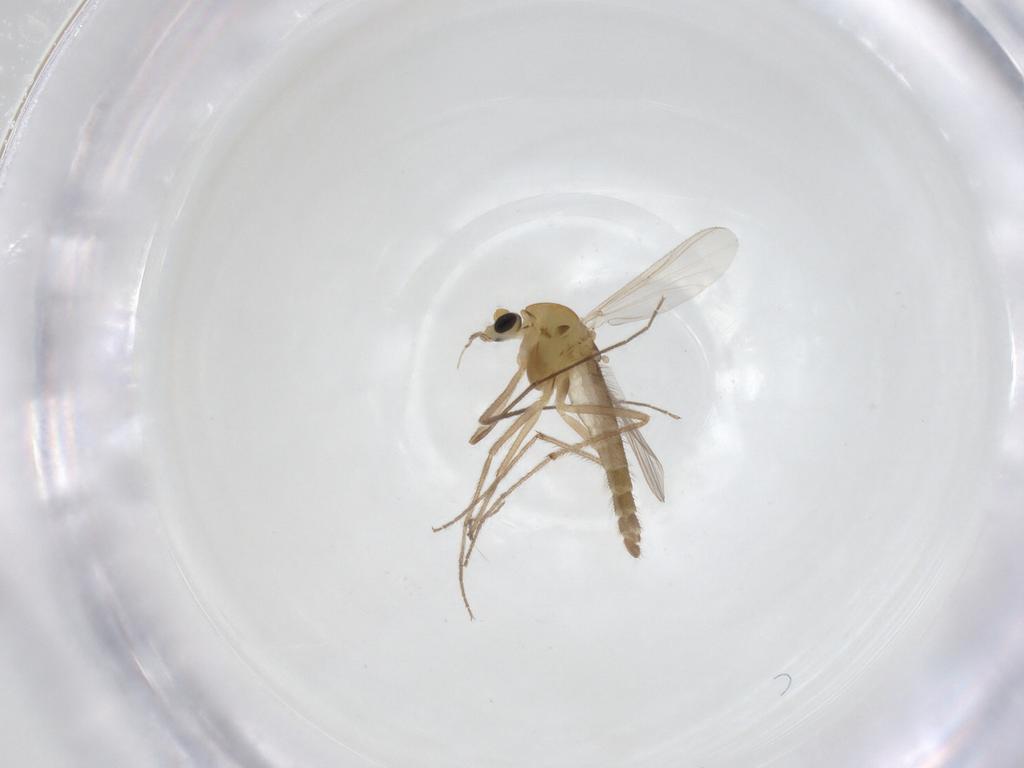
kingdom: Animalia
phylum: Arthropoda
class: Insecta
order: Diptera
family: Chironomidae
